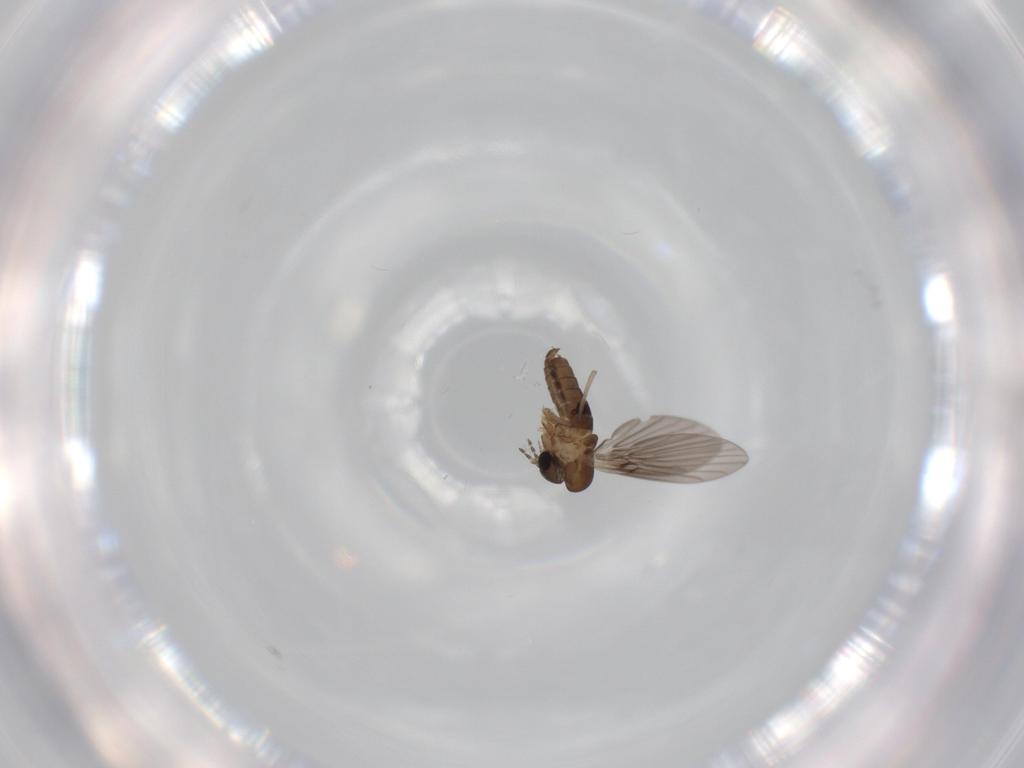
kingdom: Animalia
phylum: Arthropoda
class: Insecta
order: Diptera
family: Psychodidae
